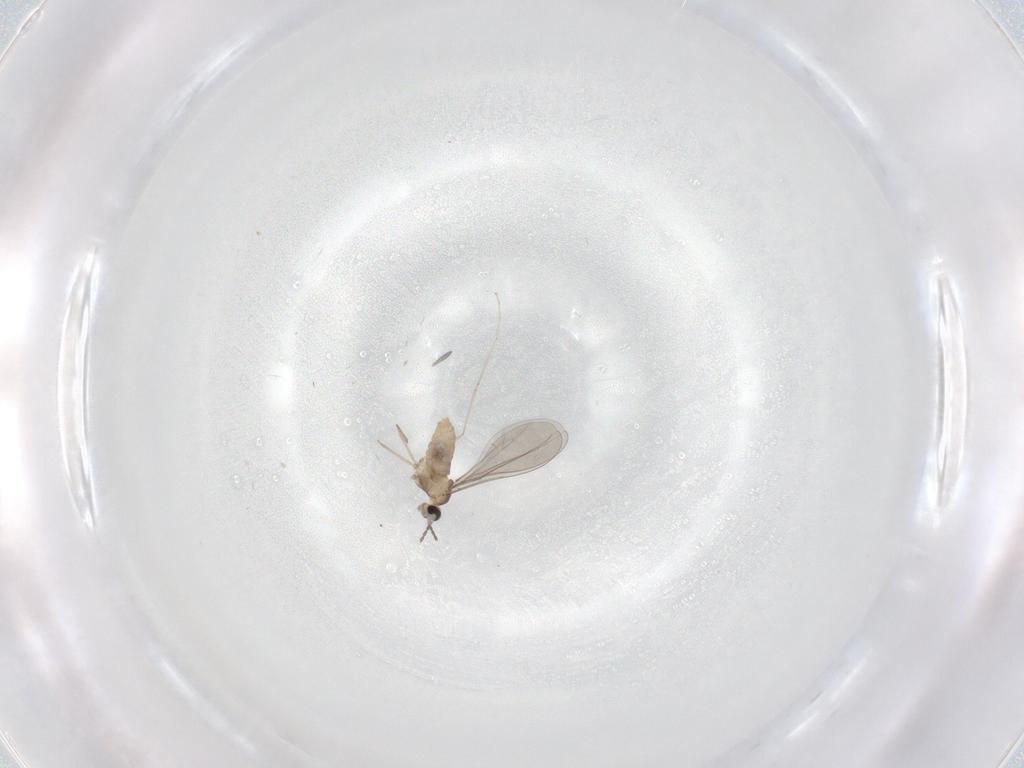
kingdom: Animalia
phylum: Arthropoda
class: Insecta
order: Diptera
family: Cecidomyiidae
